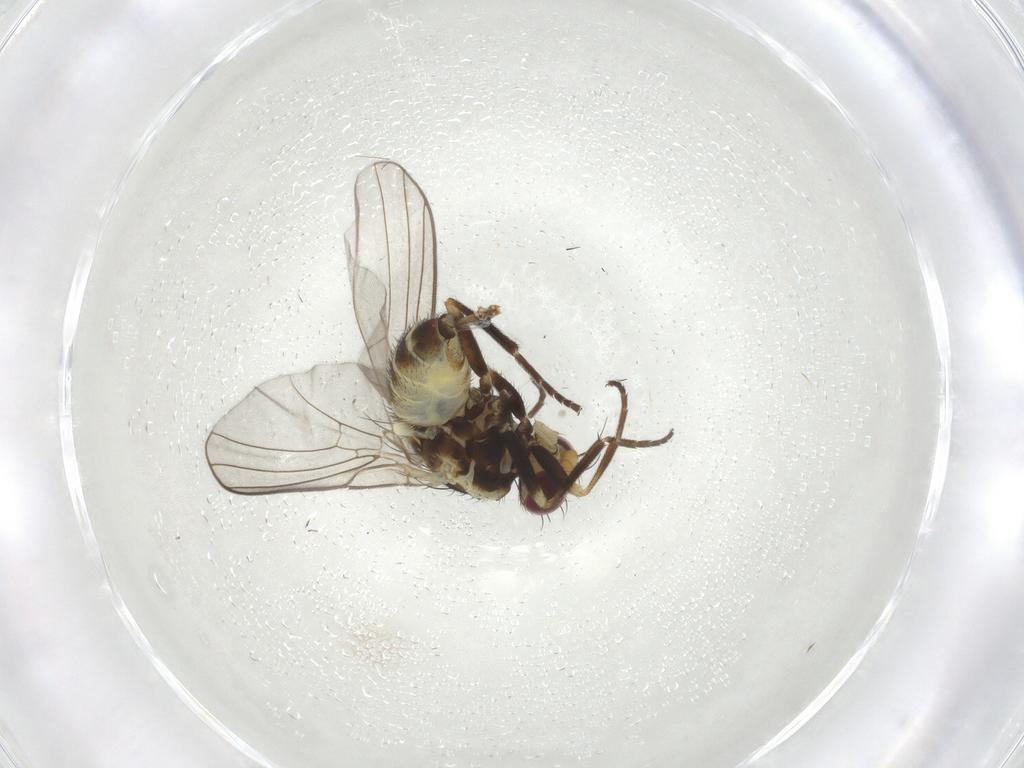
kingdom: Animalia
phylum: Arthropoda
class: Insecta
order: Diptera
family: Agromyzidae
